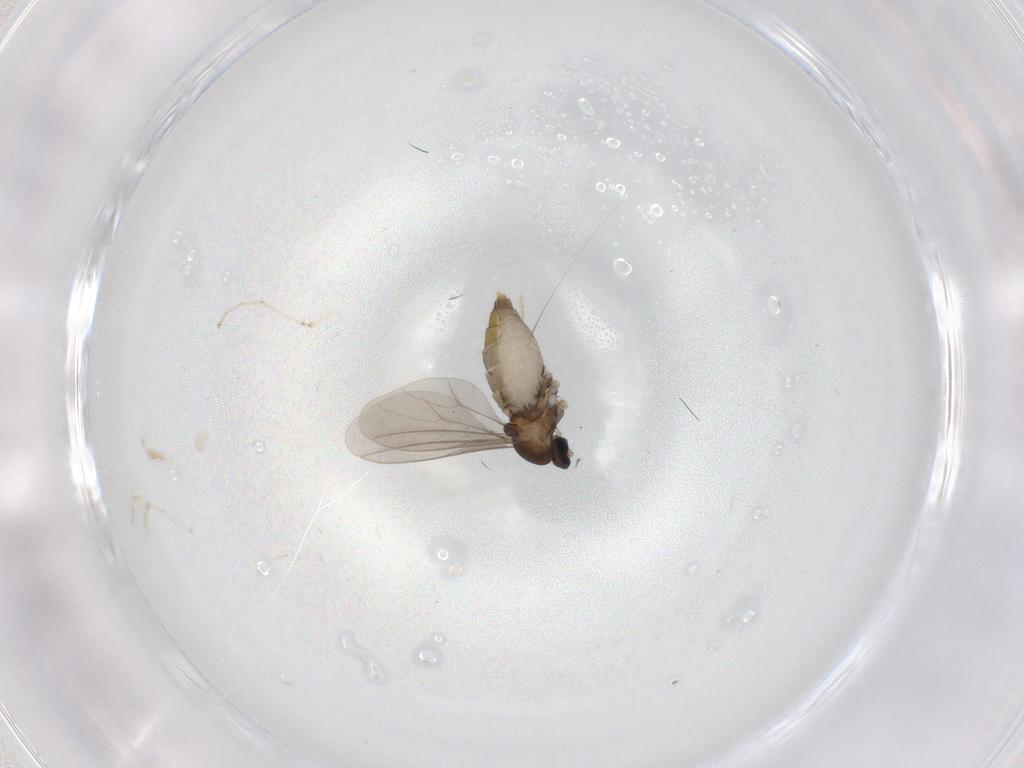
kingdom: Animalia
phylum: Arthropoda
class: Insecta
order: Diptera
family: Cecidomyiidae
